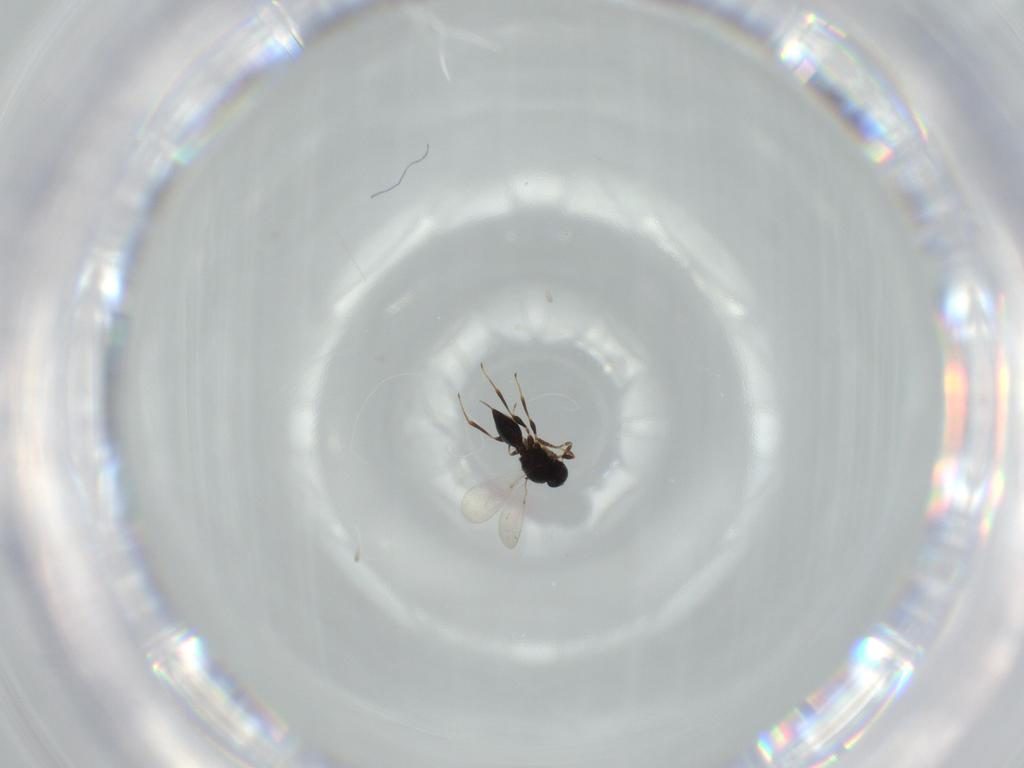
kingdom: Animalia
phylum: Arthropoda
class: Insecta
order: Hymenoptera
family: Platygastridae
